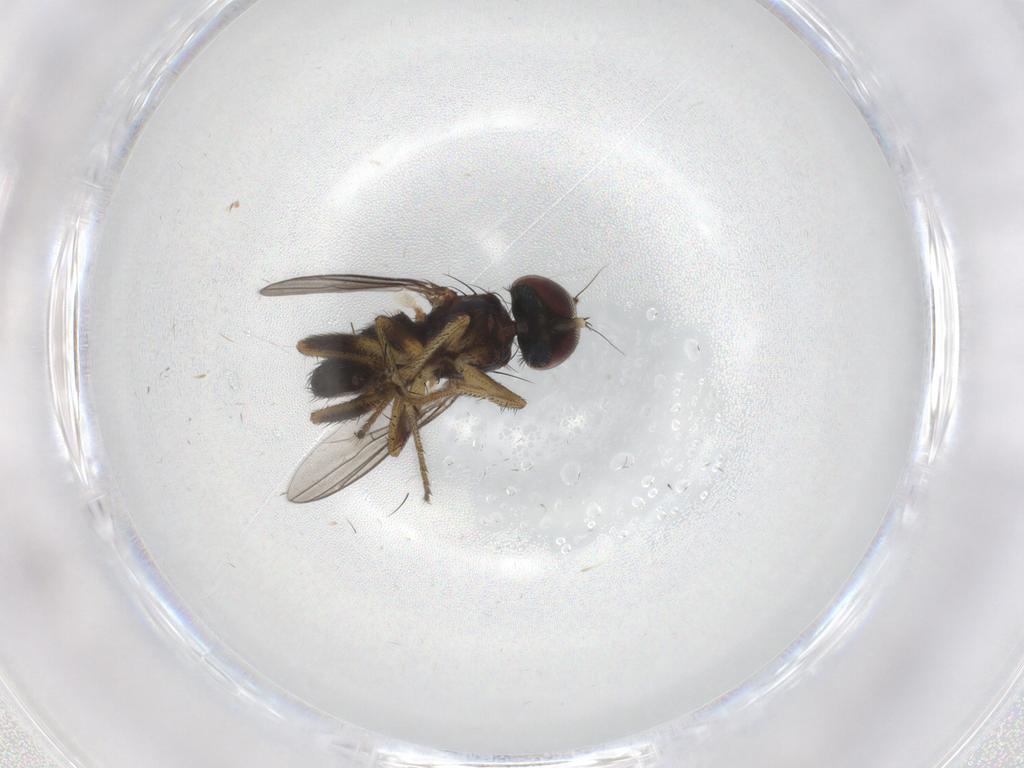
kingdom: Animalia
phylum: Arthropoda
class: Insecta
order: Diptera
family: Dolichopodidae
